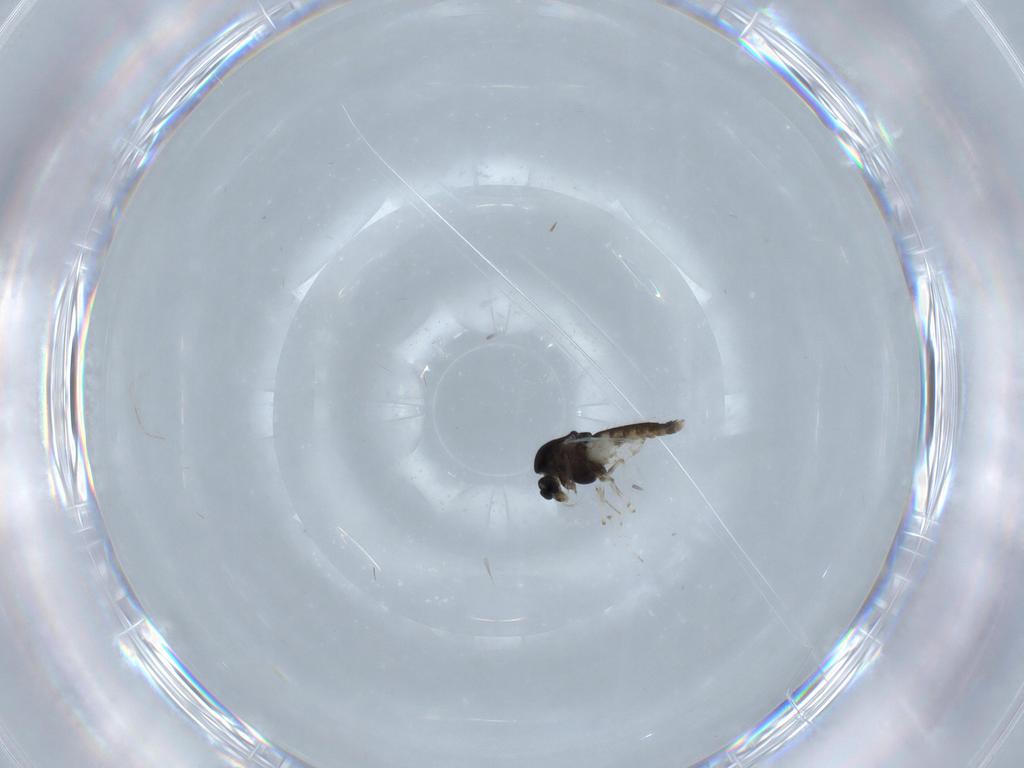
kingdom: Animalia
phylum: Arthropoda
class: Insecta
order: Diptera
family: Chironomidae
